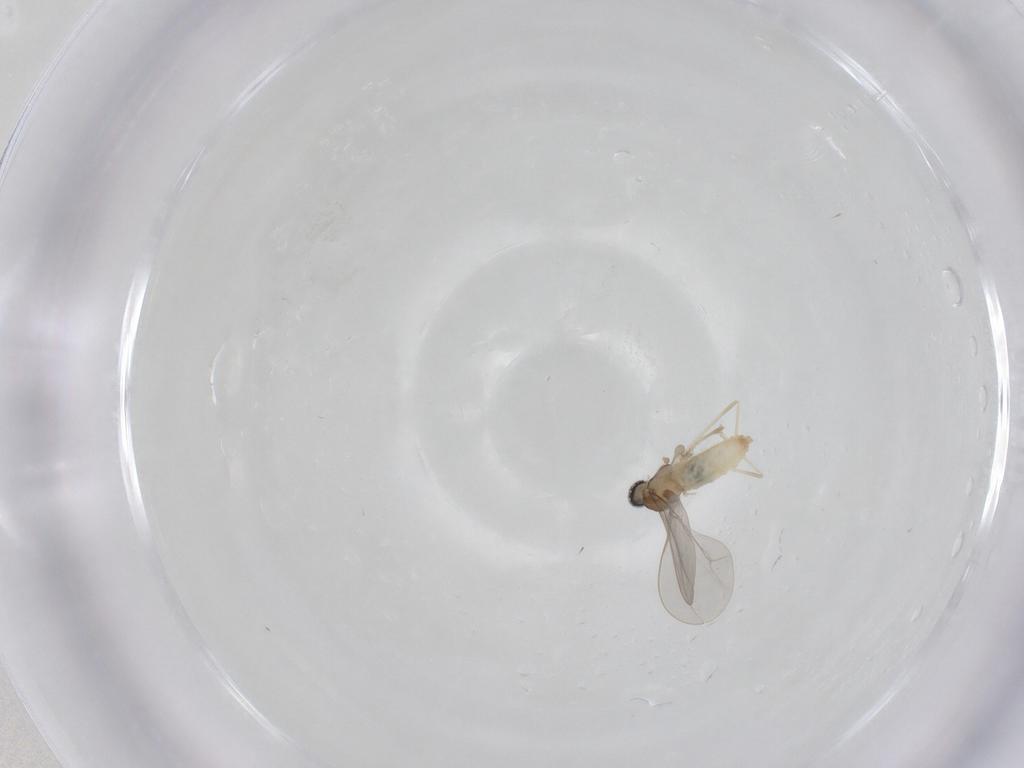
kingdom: Animalia
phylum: Arthropoda
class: Insecta
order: Diptera
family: Cecidomyiidae
